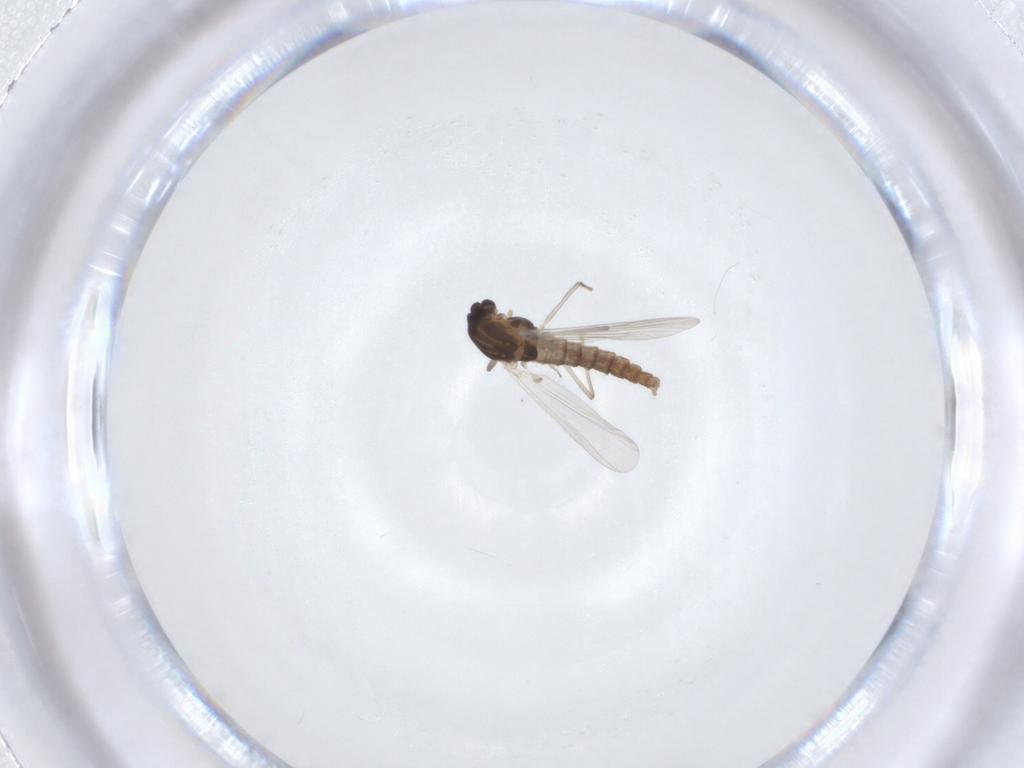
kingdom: Animalia
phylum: Arthropoda
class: Insecta
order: Diptera
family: Chironomidae
